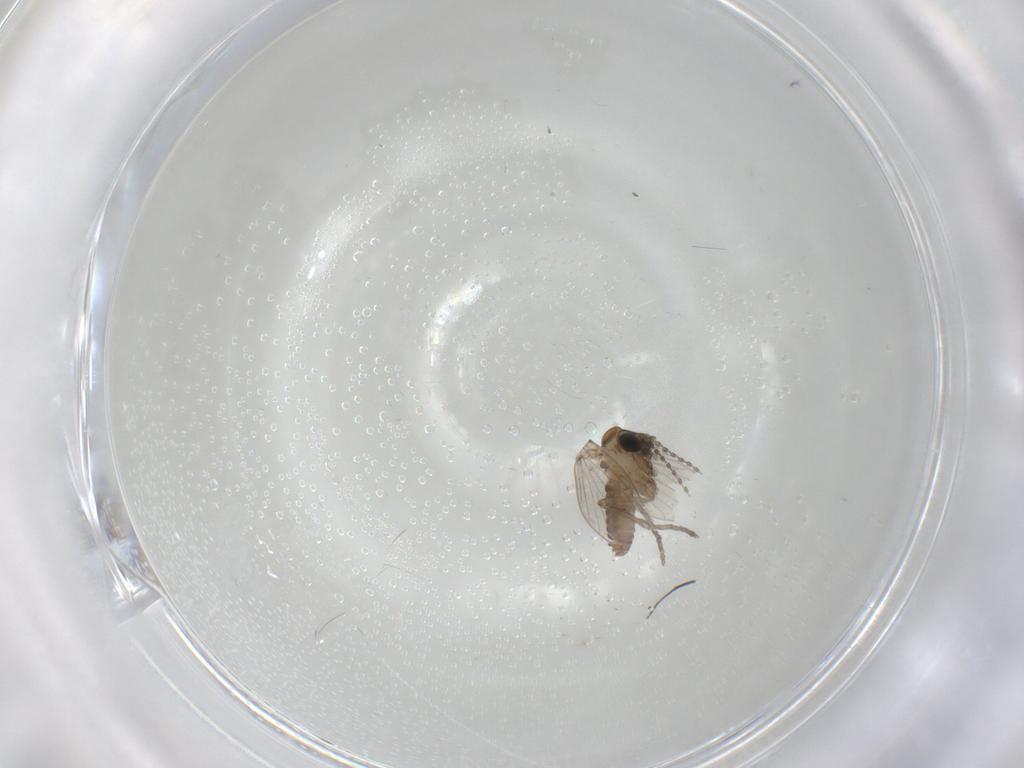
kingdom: Animalia
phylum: Arthropoda
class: Insecta
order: Diptera
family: Psychodidae
